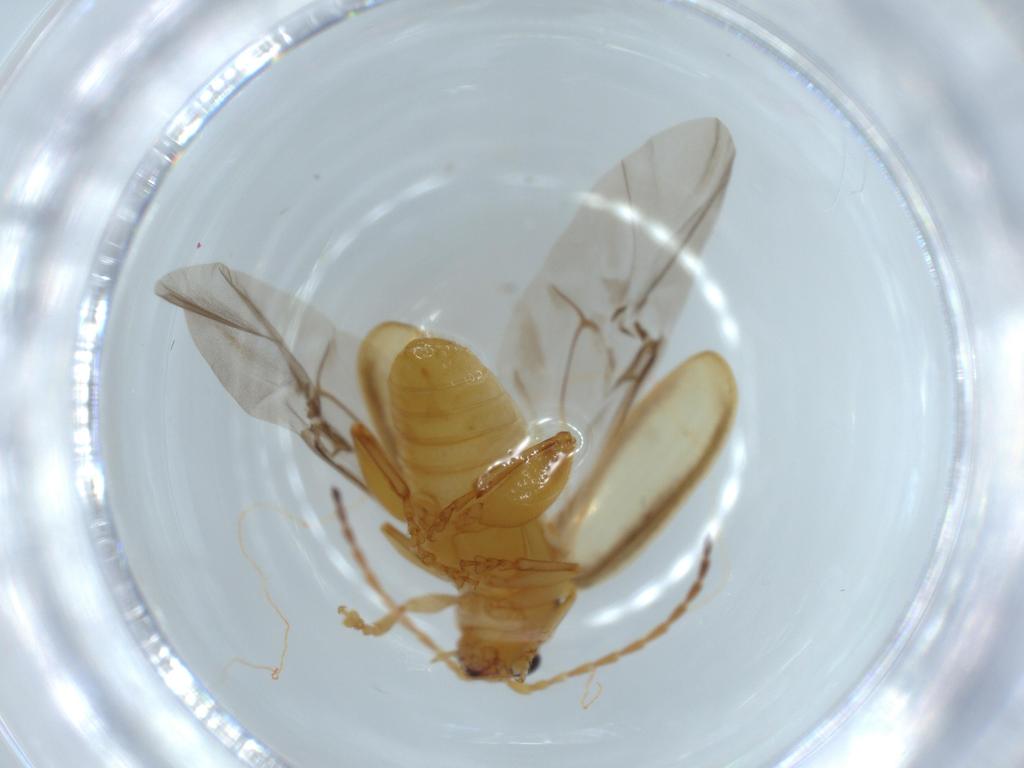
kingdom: Animalia
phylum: Arthropoda
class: Insecta
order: Coleoptera
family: Chrysomelidae
